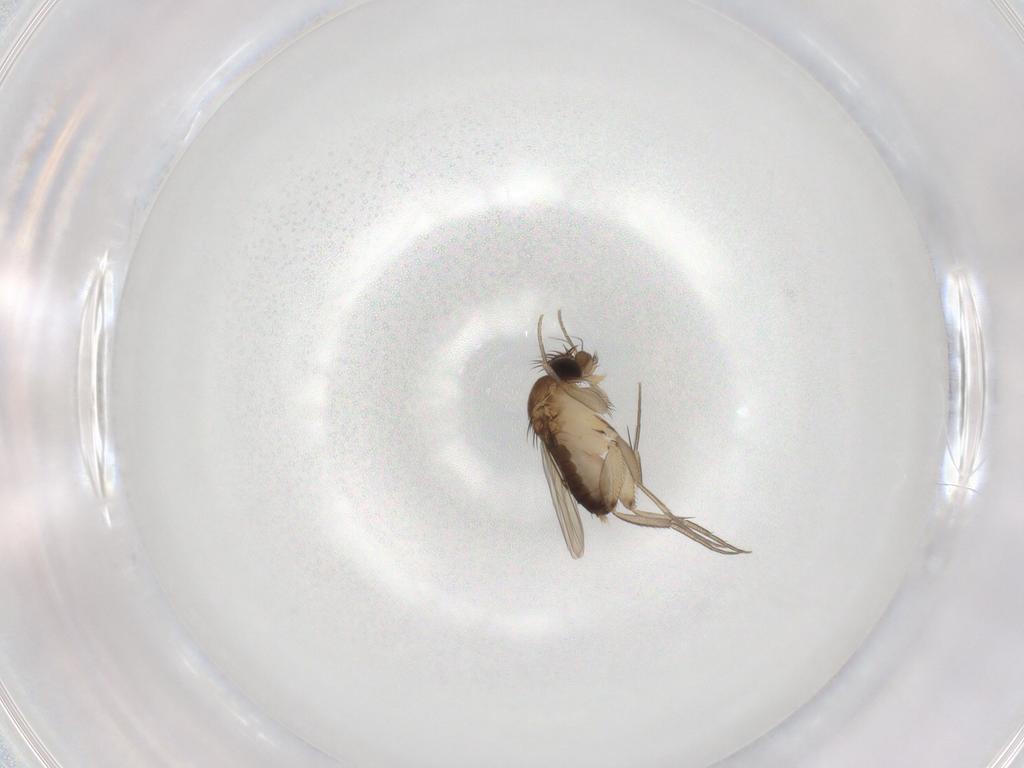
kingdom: Animalia
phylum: Arthropoda
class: Insecta
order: Diptera
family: Phoridae
